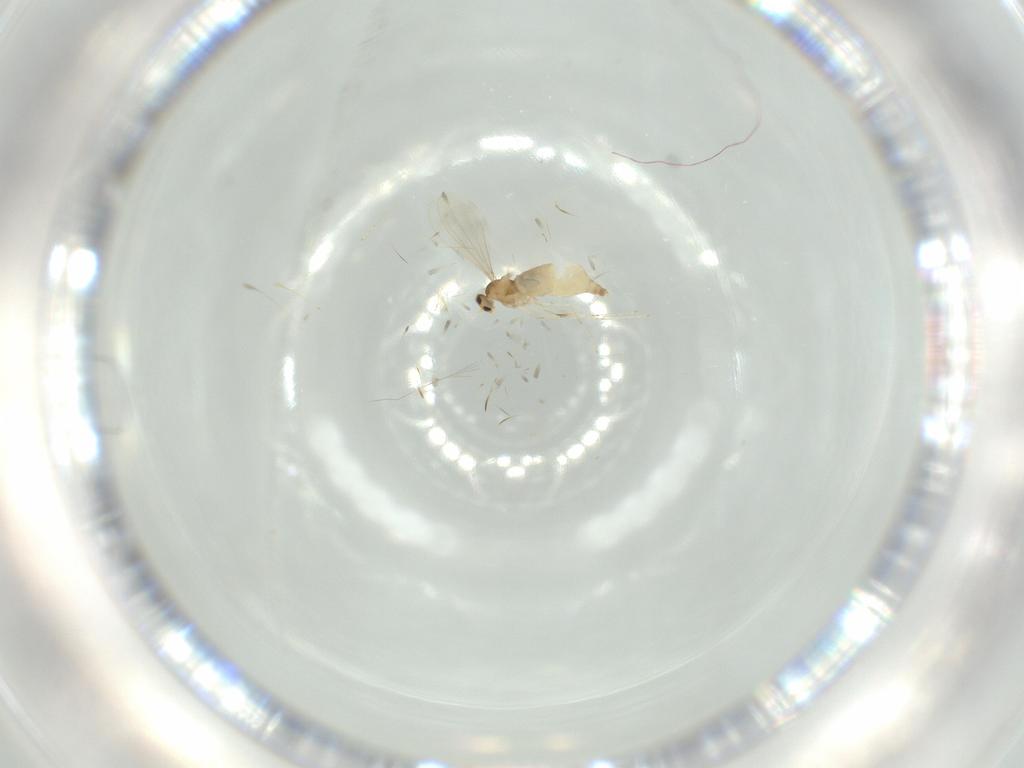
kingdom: Animalia
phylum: Arthropoda
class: Insecta
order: Diptera
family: Cecidomyiidae
